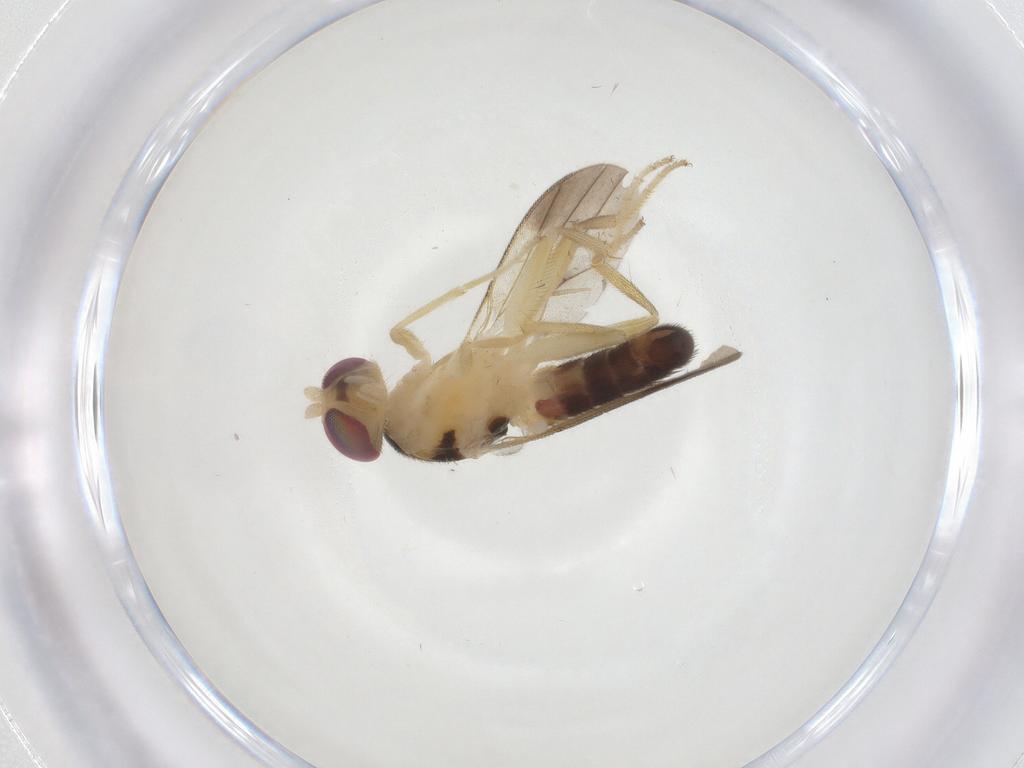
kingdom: Animalia
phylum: Arthropoda
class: Insecta
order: Diptera
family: Clusiidae
